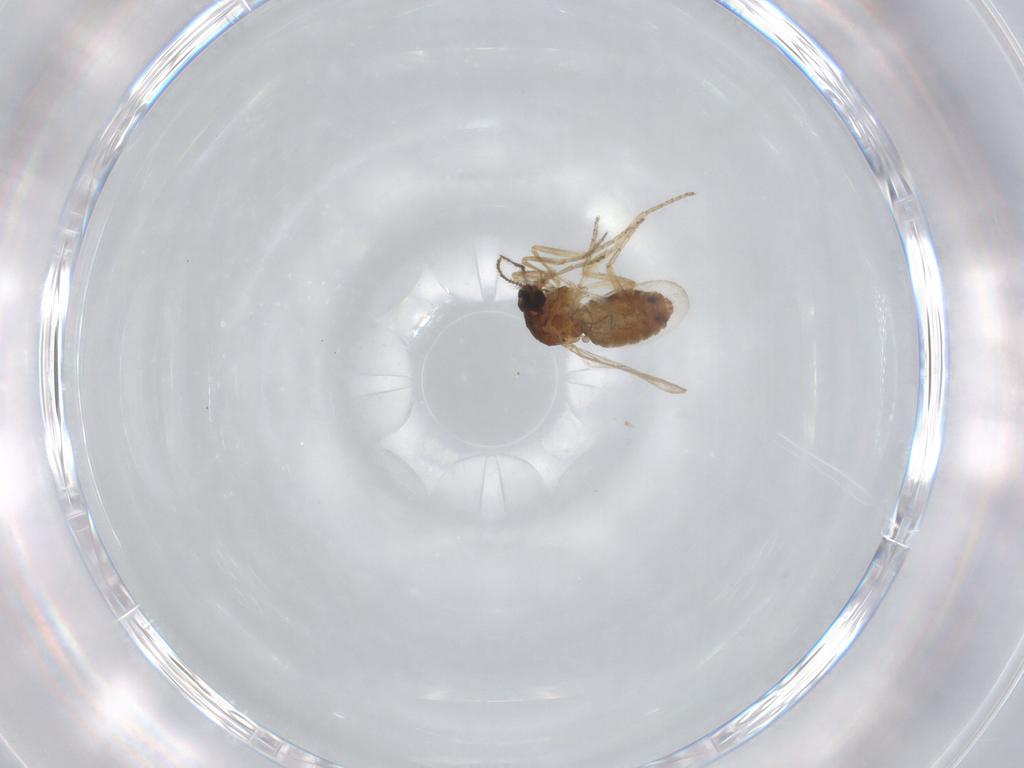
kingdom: Animalia
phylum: Arthropoda
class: Insecta
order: Diptera
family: Ceratopogonidae
